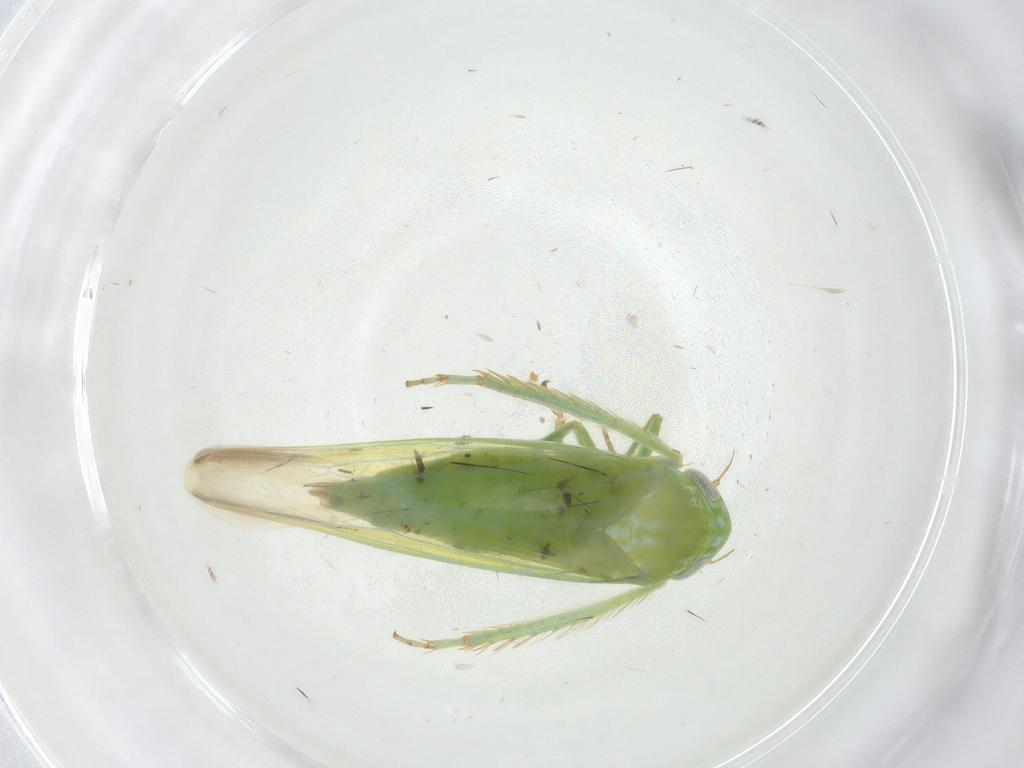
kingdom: Animalia
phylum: Arthropoda
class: Insecta
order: Hemiptera
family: Cicadellidae
